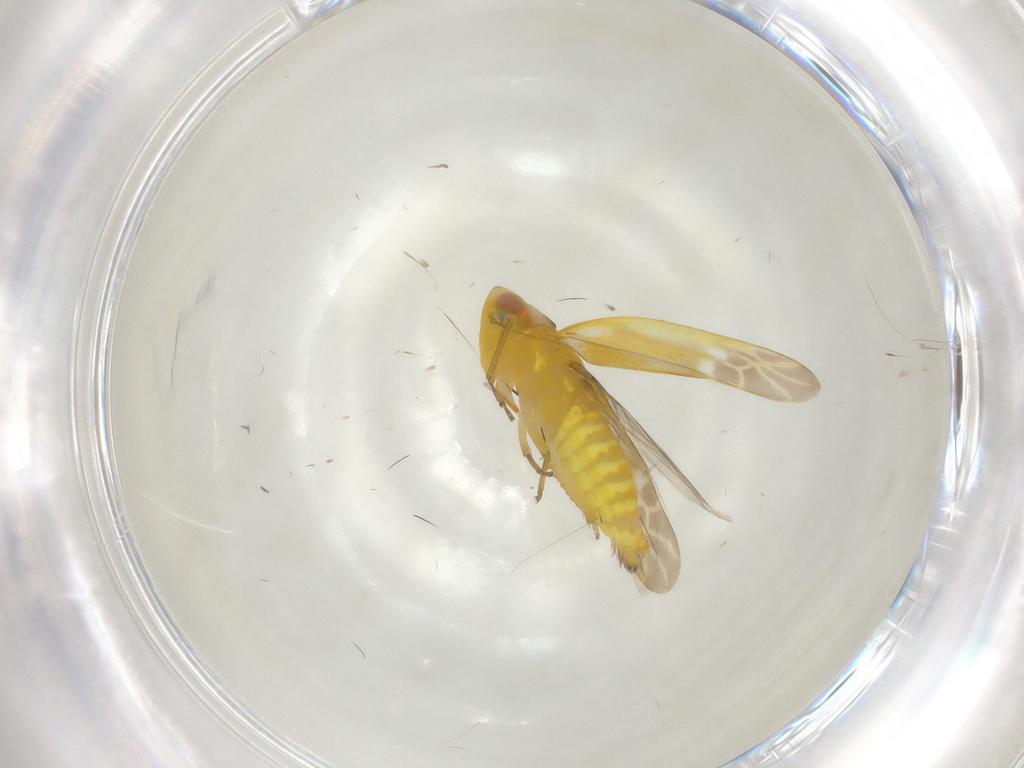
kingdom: Animalia
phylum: Arthropoda
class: Insecta
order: Hemiptera
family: Cicadellidae
